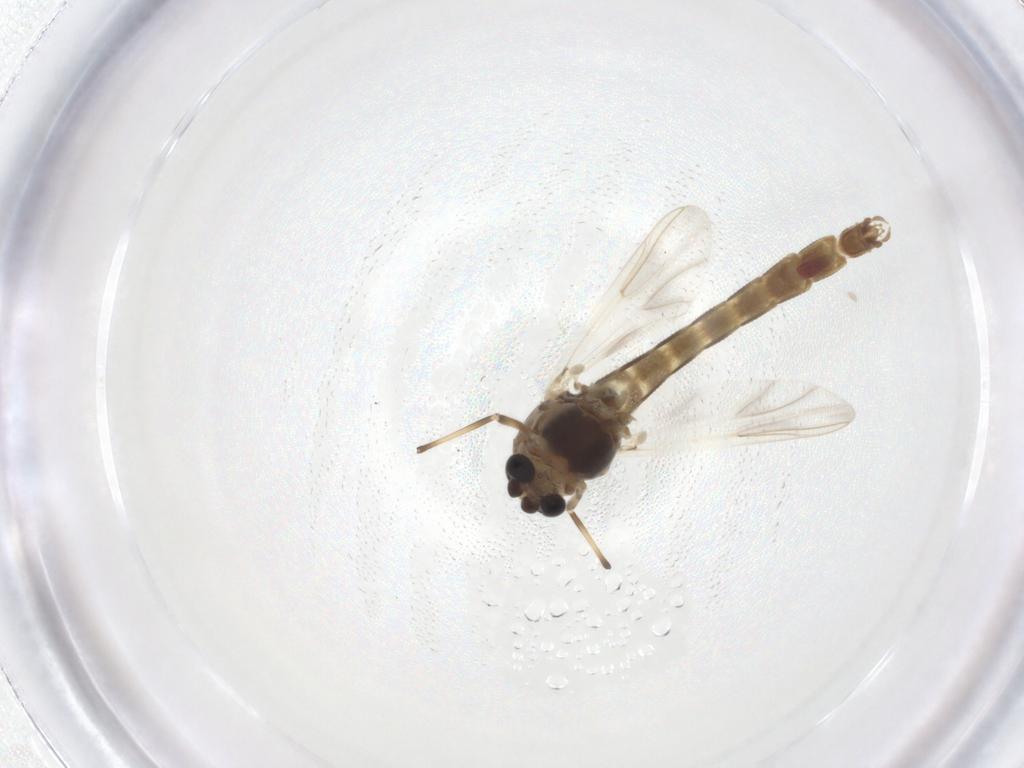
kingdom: Animalia
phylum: Arthropoda
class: Insecta
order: Diptera
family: Chironomidae
